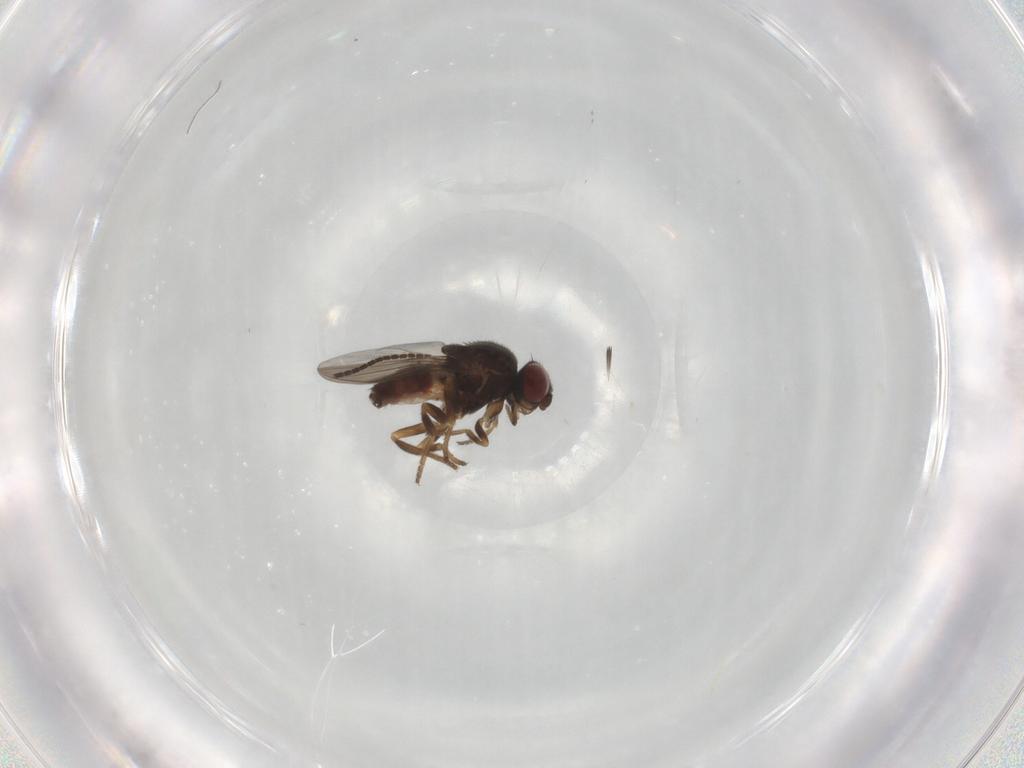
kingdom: Animalia
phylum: Arthropoda
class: Insecta
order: Diptera
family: Chloropidae
